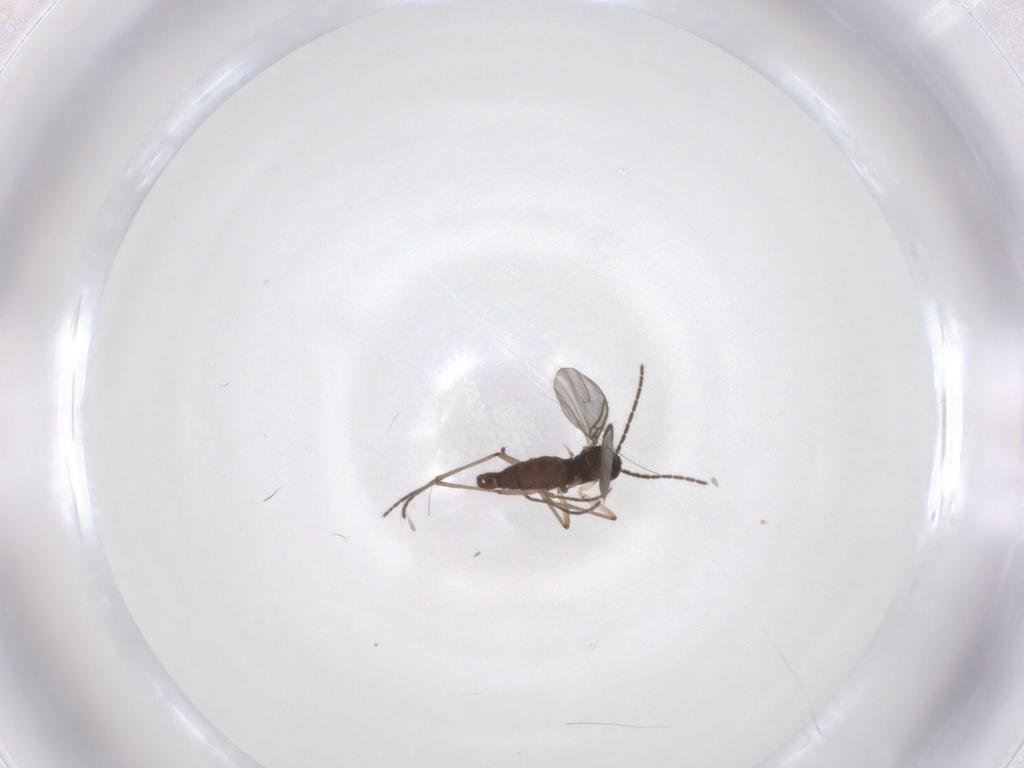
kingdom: Animalia
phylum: Arthropoda
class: Insecta
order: Diptera
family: Sciaridae
